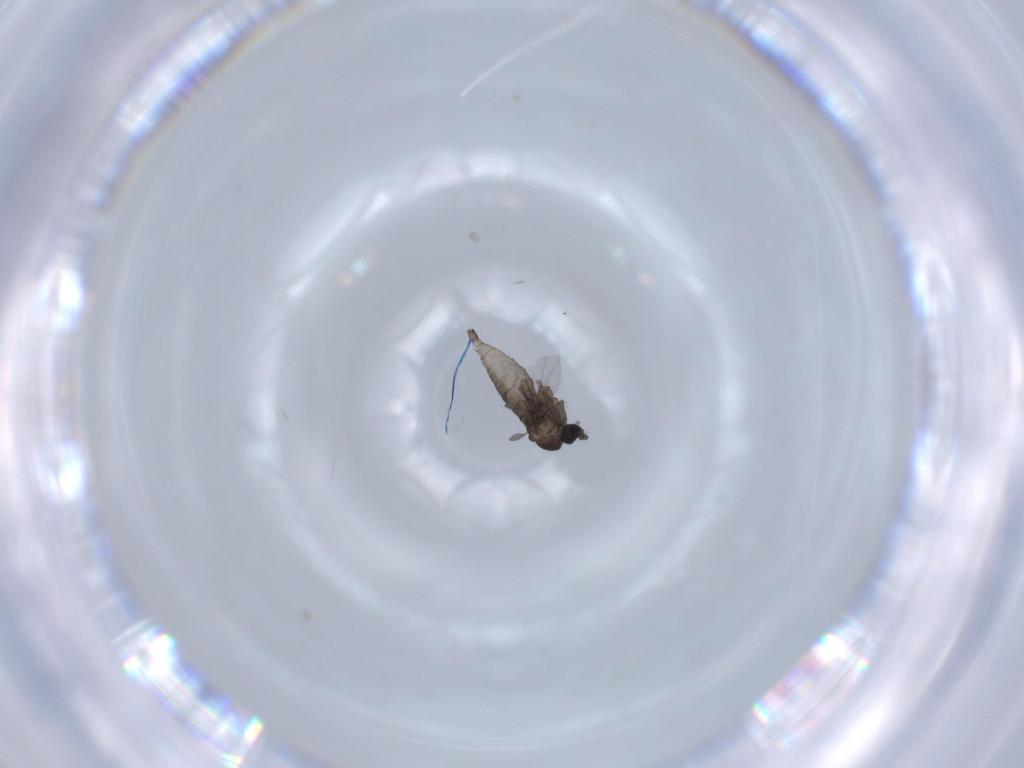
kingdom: Animalia
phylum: Arthropoda
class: Insecta
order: Diptera
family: Sciaridae
